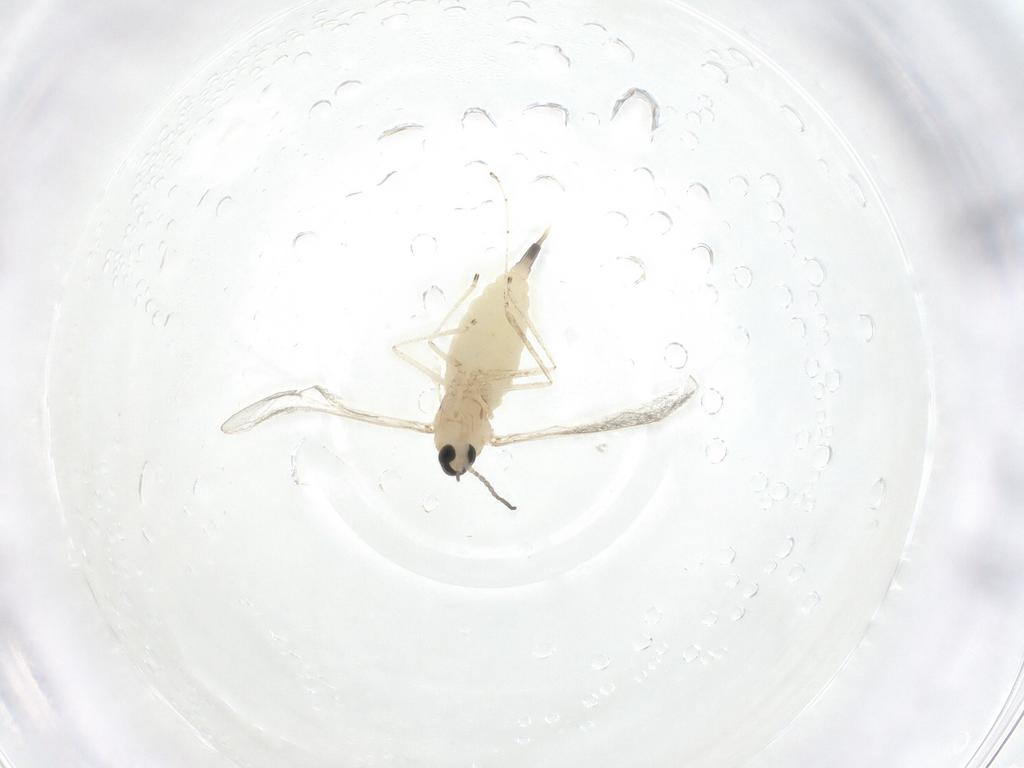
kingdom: Animalia
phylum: Arthropoda
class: Insecta
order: Diptera
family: Cecidomyiidae
